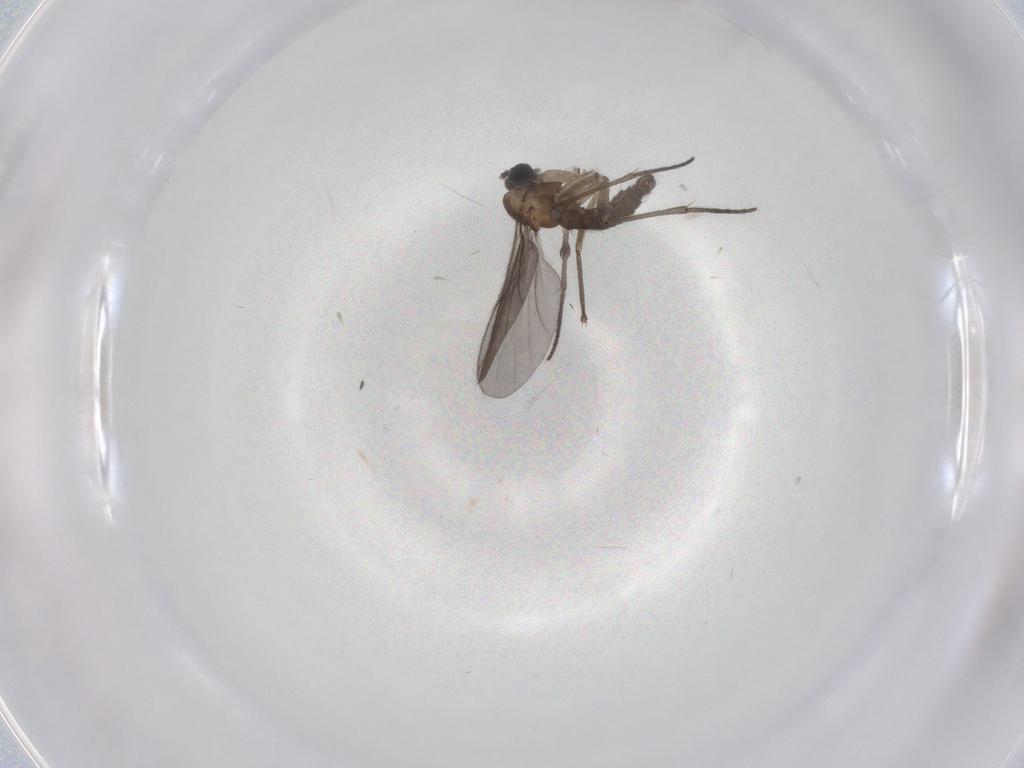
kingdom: Animalia
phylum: Arthropoda
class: Insecta
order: Diptera
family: Sciaridae
